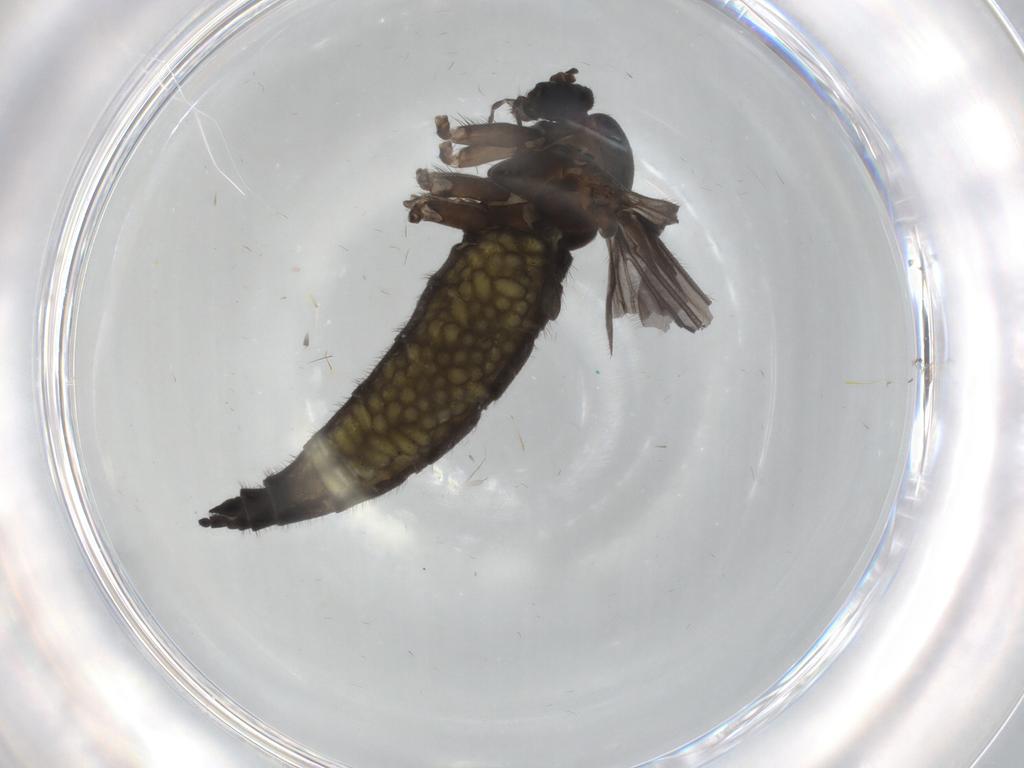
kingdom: Animalia
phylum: Arthropoda
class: Insecta
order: Diptera
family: Sciaridae
